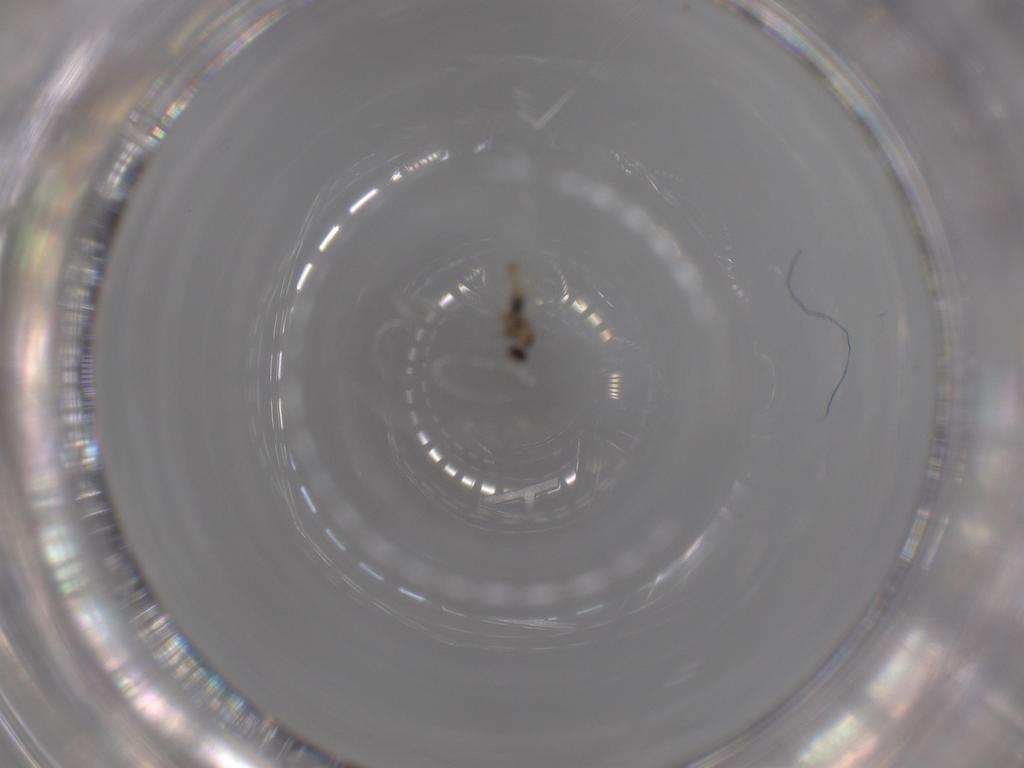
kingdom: Animalia
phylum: Arthropoda
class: Insecta
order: Diptera
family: Cecidomyiidae
